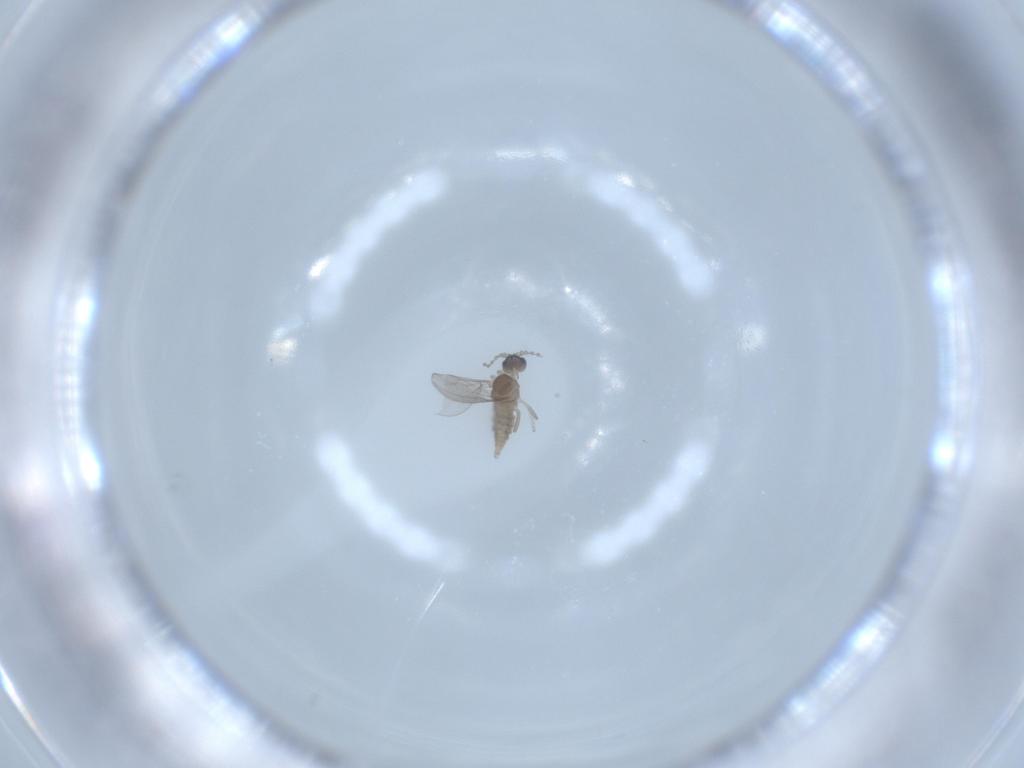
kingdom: Animalia
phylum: Arthropoda
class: Insecta
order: Diptera
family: Cecidomyiidae
